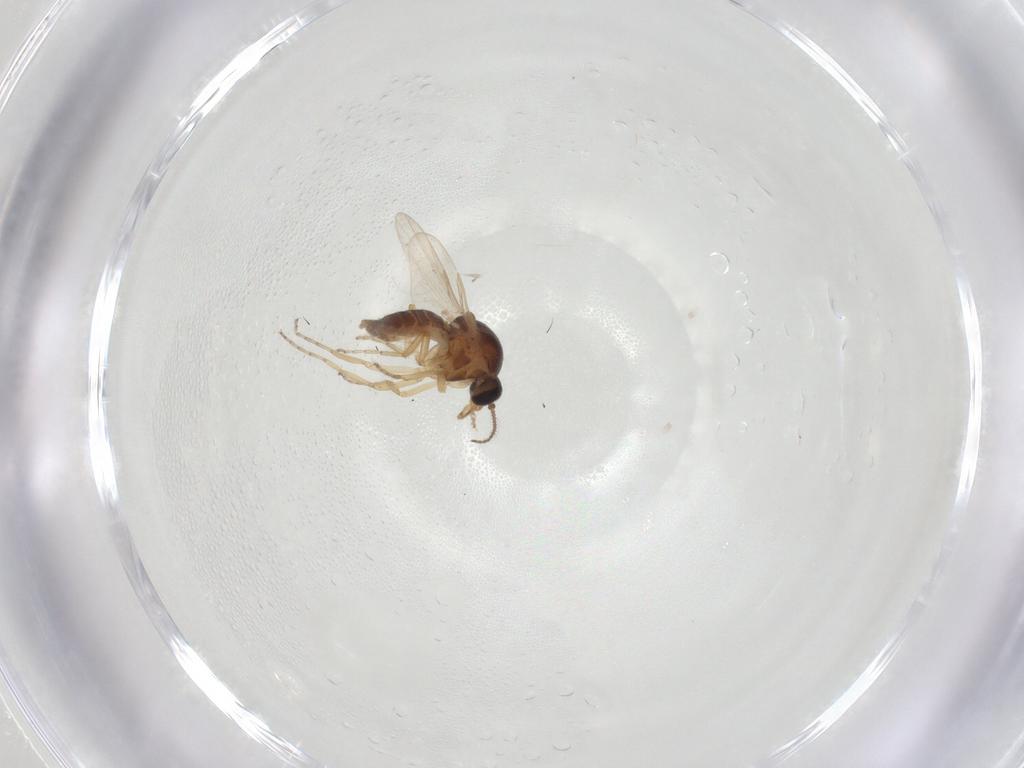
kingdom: Animalia
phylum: Arthropoda
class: Insecta
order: Diptera
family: Ceratopogonidae
